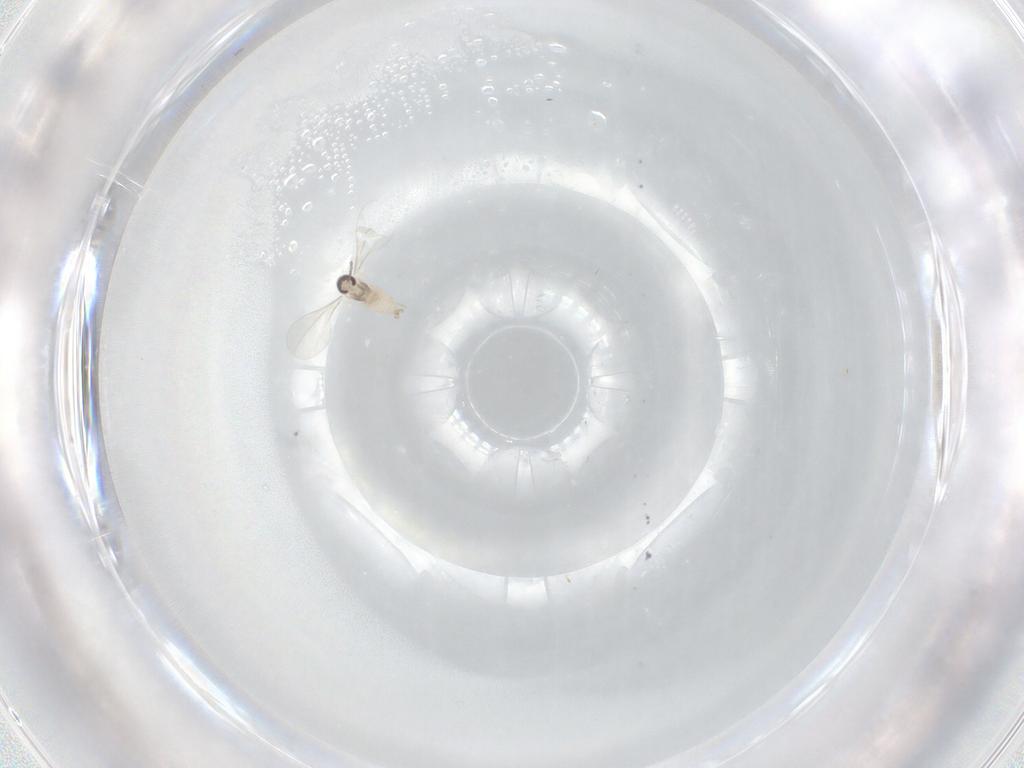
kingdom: Animalia
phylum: Arthropoda
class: Insecta
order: Diptera
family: Cecidomyiidae
